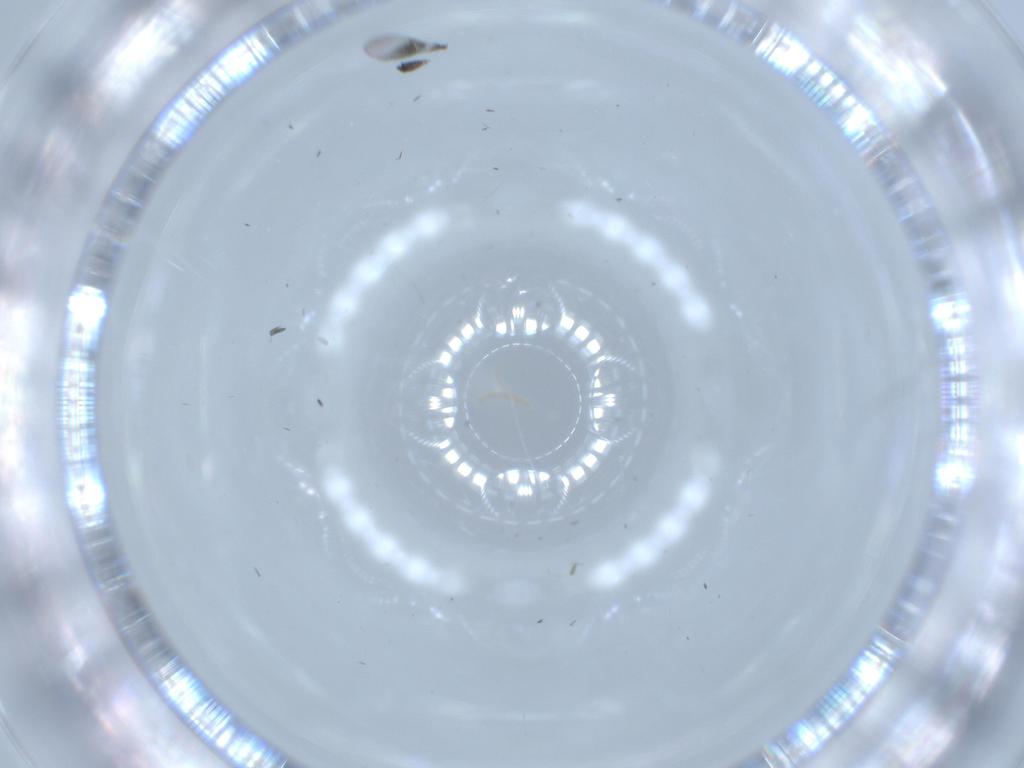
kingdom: Animalia
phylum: Arthropoda
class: Insecta
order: Diptera
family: Sciaridae
